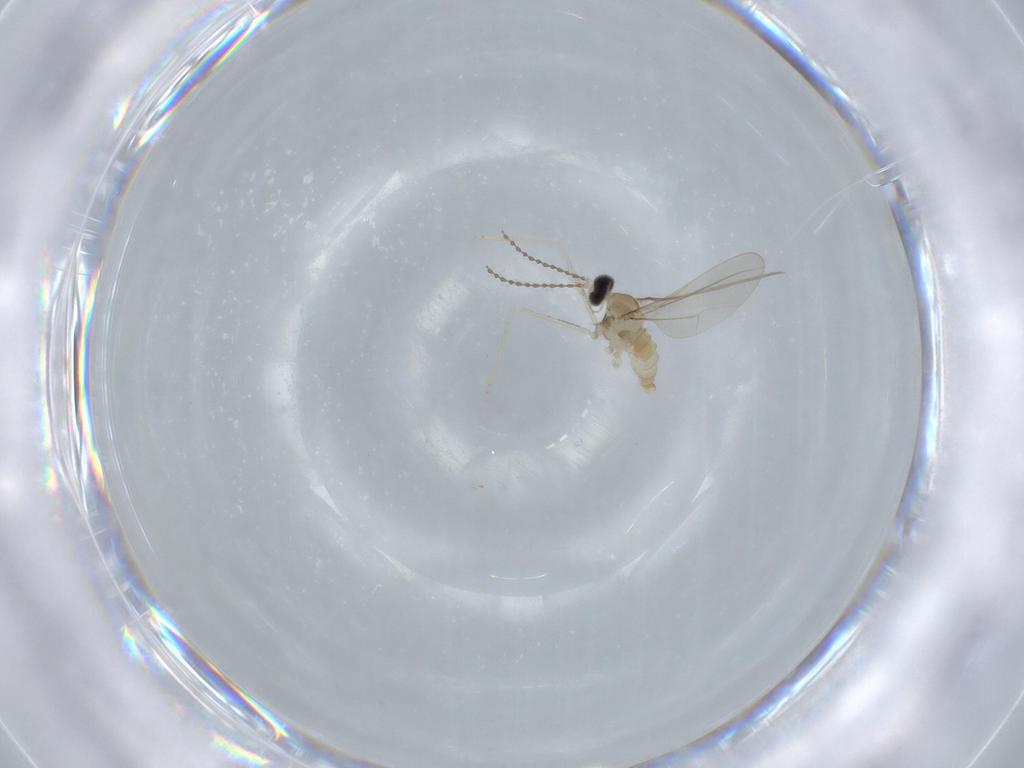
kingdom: Animalia
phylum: Arthropoda
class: Insecta
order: Diptera
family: Cecidomyiidae
